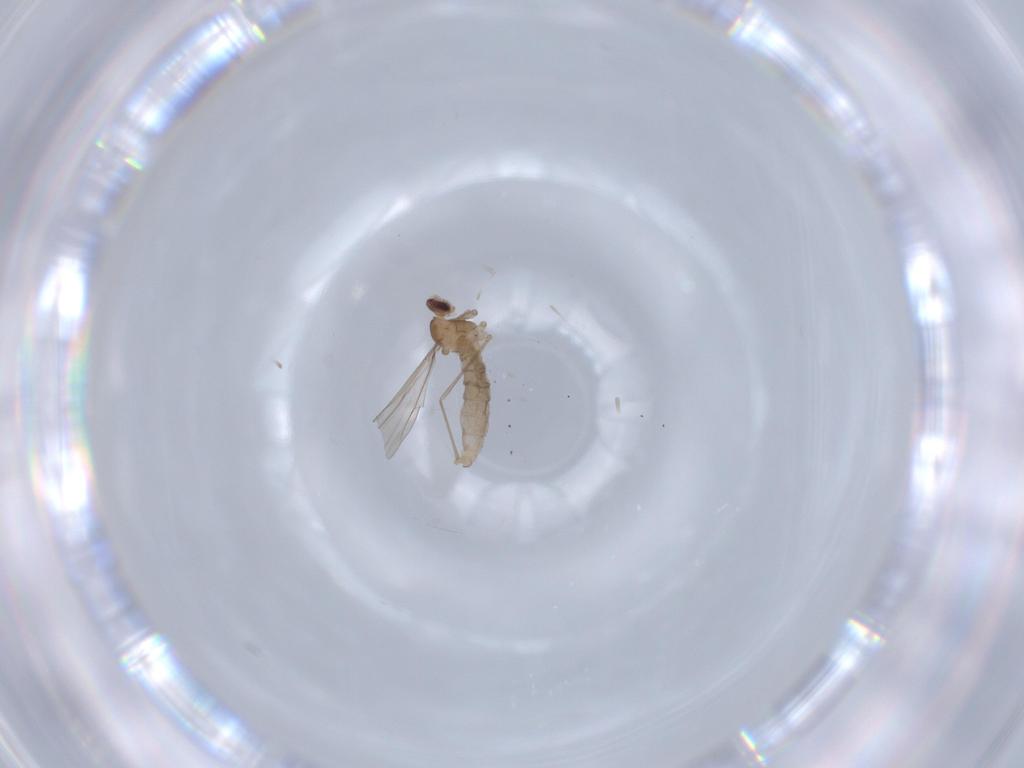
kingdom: Animalia
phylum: Arthropoda
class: Insecta
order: Diptera
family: Cecidomyiidae
